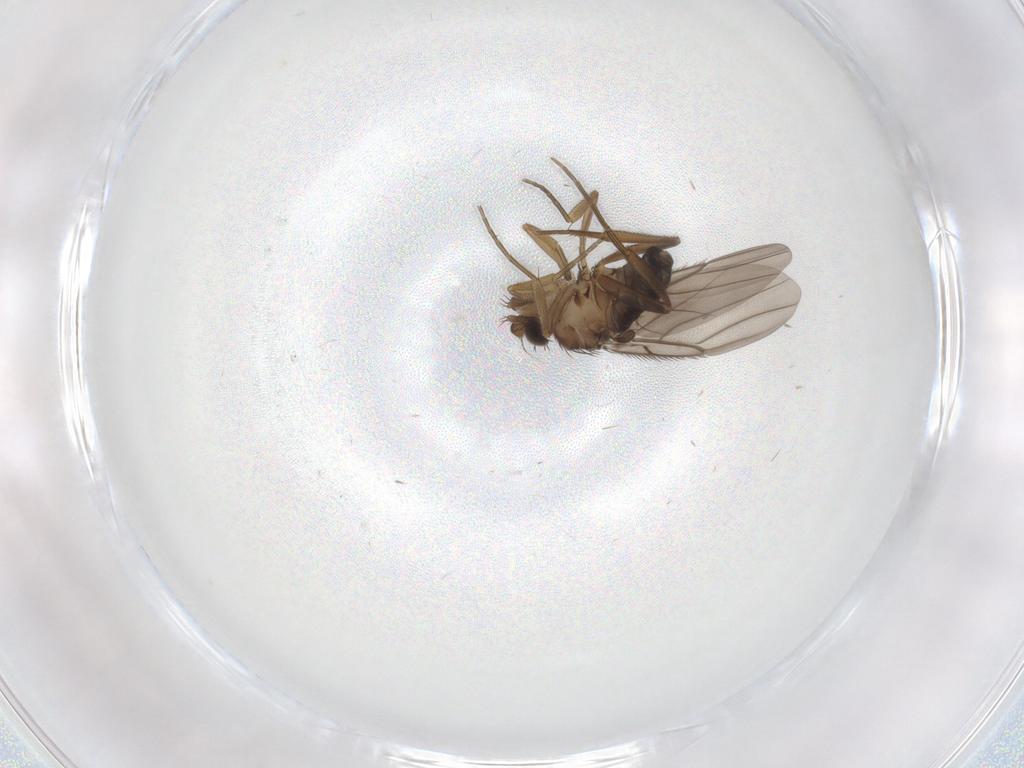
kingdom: Animalia
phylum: Arthropoda
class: Insecta
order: Diptera
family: Cecidomyiidae
